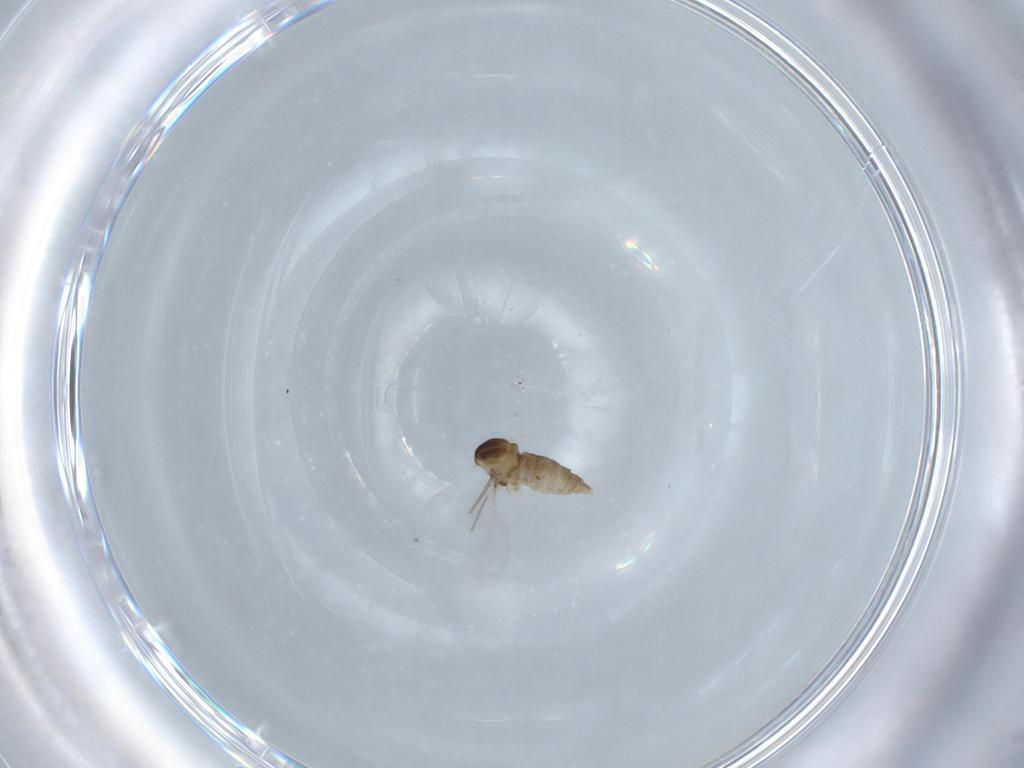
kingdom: Animalia
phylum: Arthropoda
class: Insecta
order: Diptera
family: Cecidomyiidae
